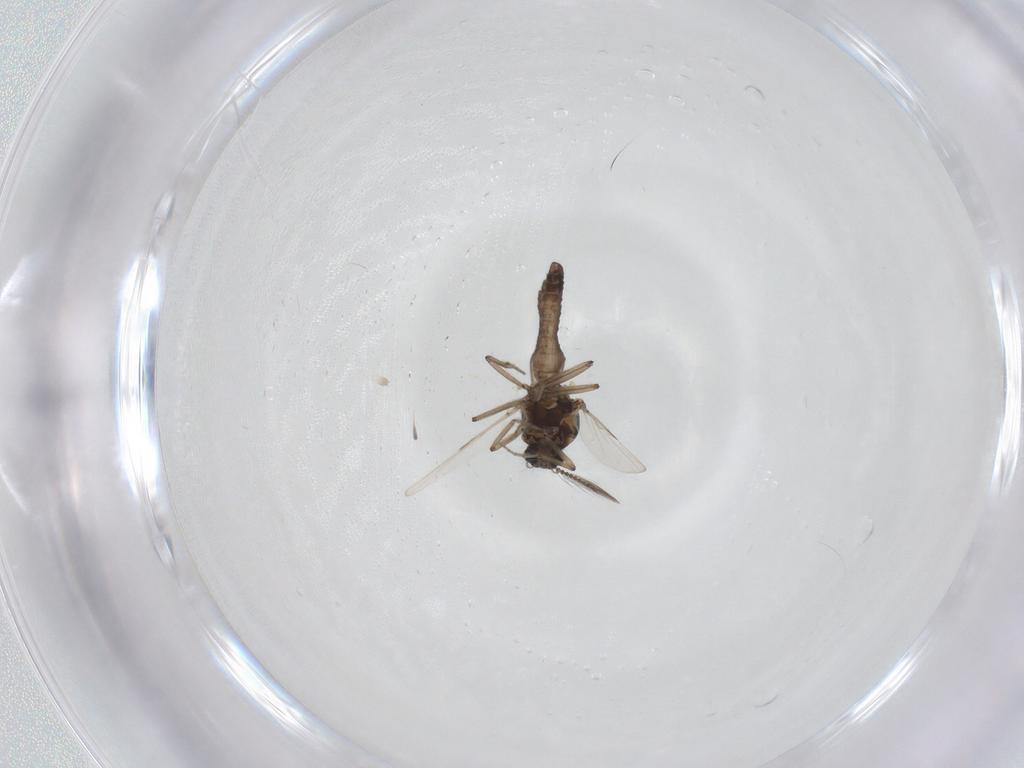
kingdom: Animalia
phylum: Arthropoda
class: Insecta
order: Diptera
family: Ceratopogonidae
